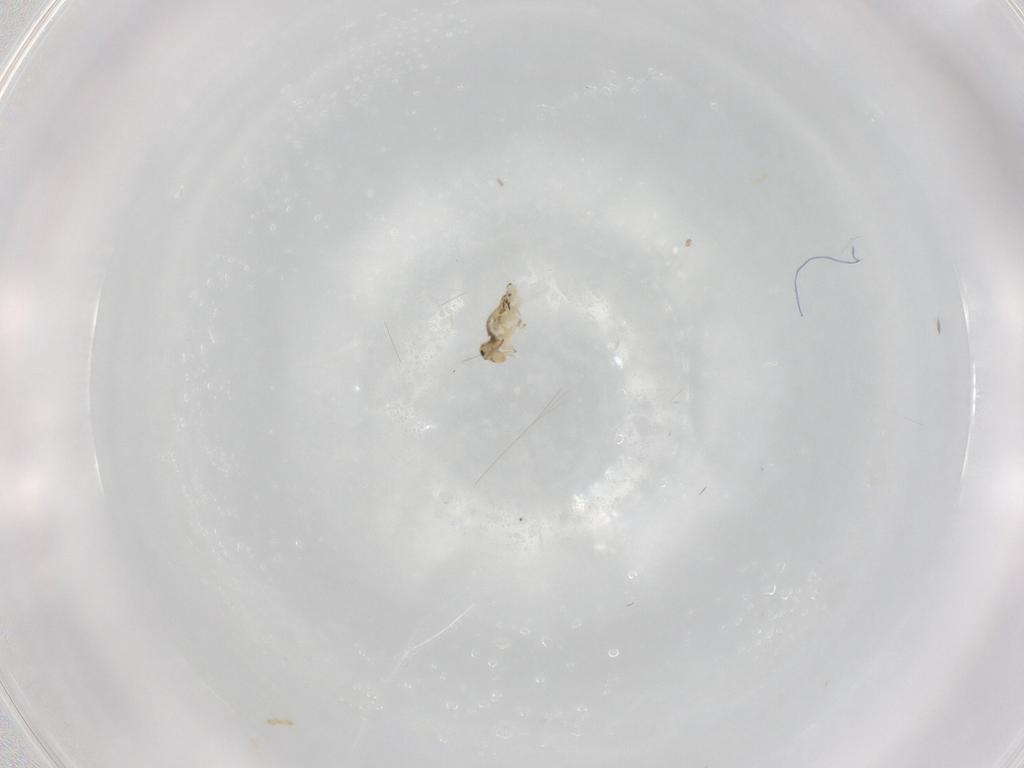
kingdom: Animalia
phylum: Arthropoda
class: Collembola
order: Symphypleona
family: Bourletiellidae
